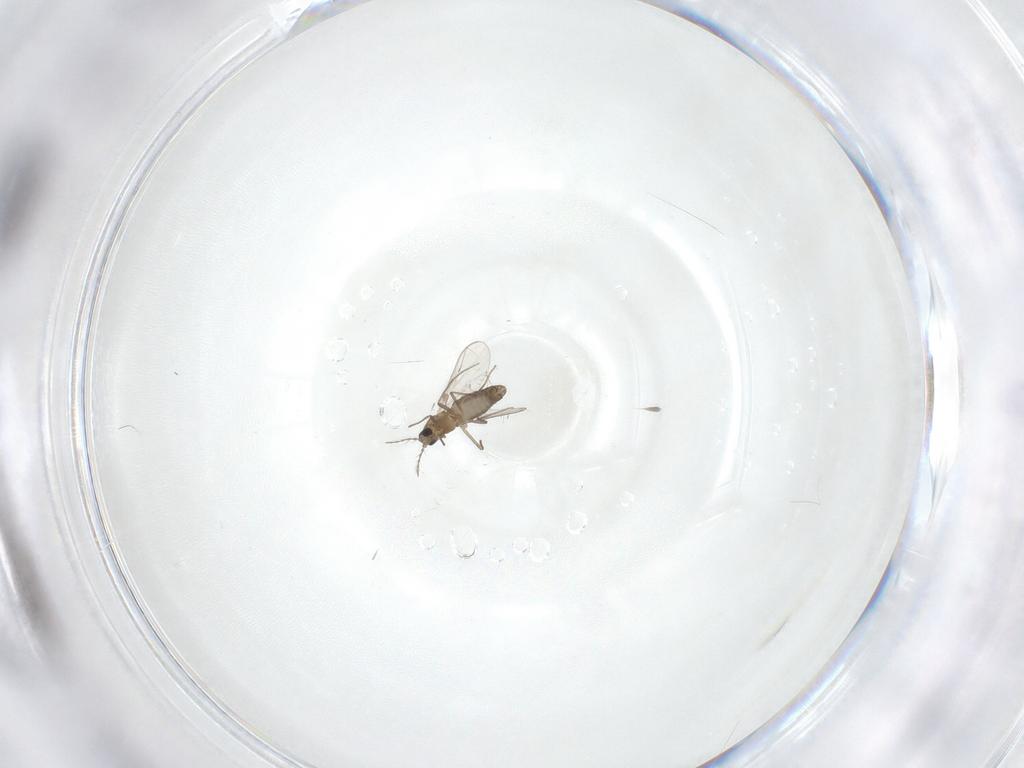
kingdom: Animalia
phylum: Arthropoda
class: Insecta
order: Diptera
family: Chironomidae
